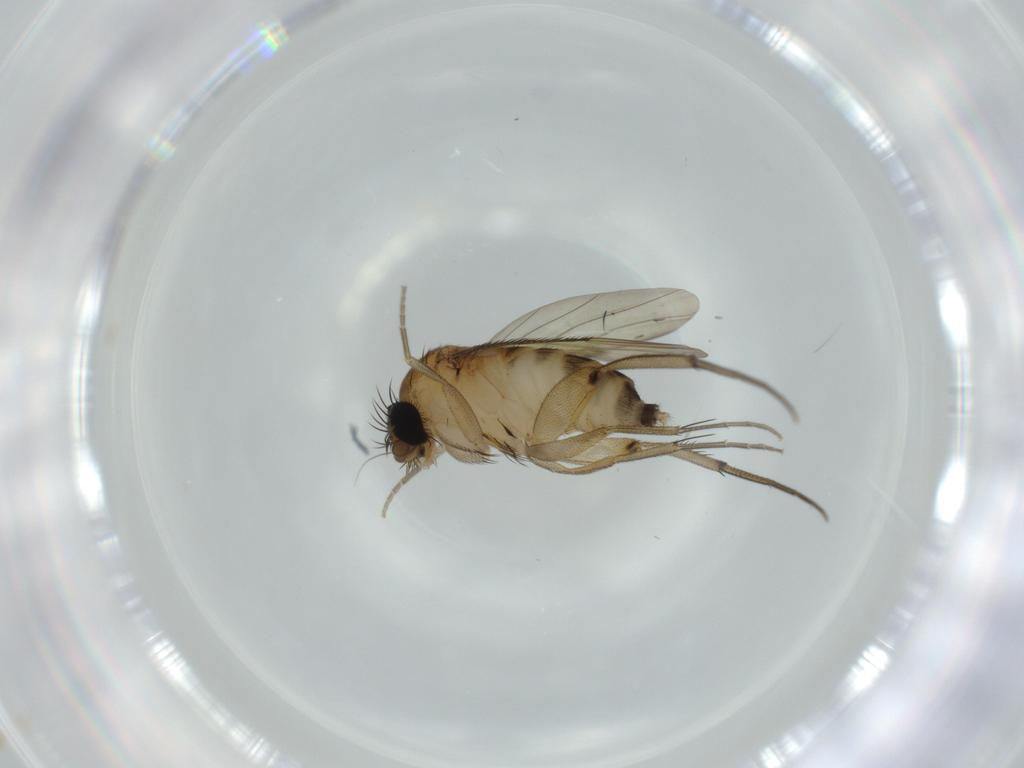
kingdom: Animalia
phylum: Arthropoda
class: Insecta
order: Diptera
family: Phoridae
